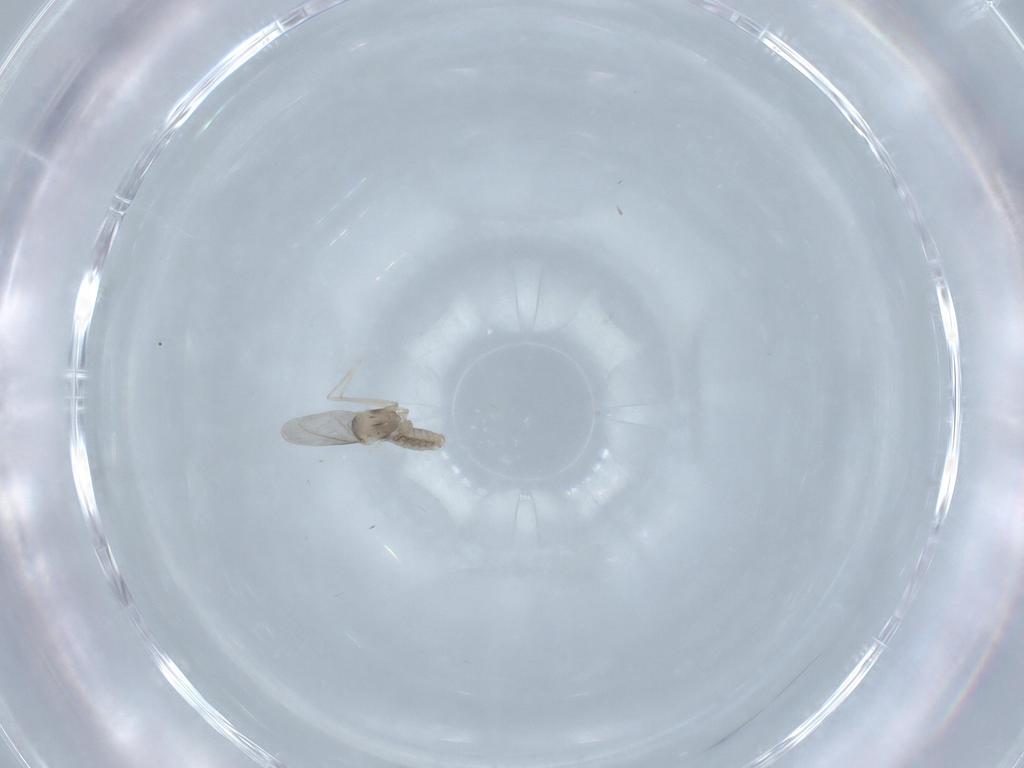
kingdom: Animalia
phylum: Arthropoda
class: Insecta
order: Diptera
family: Cecidomyiidae
